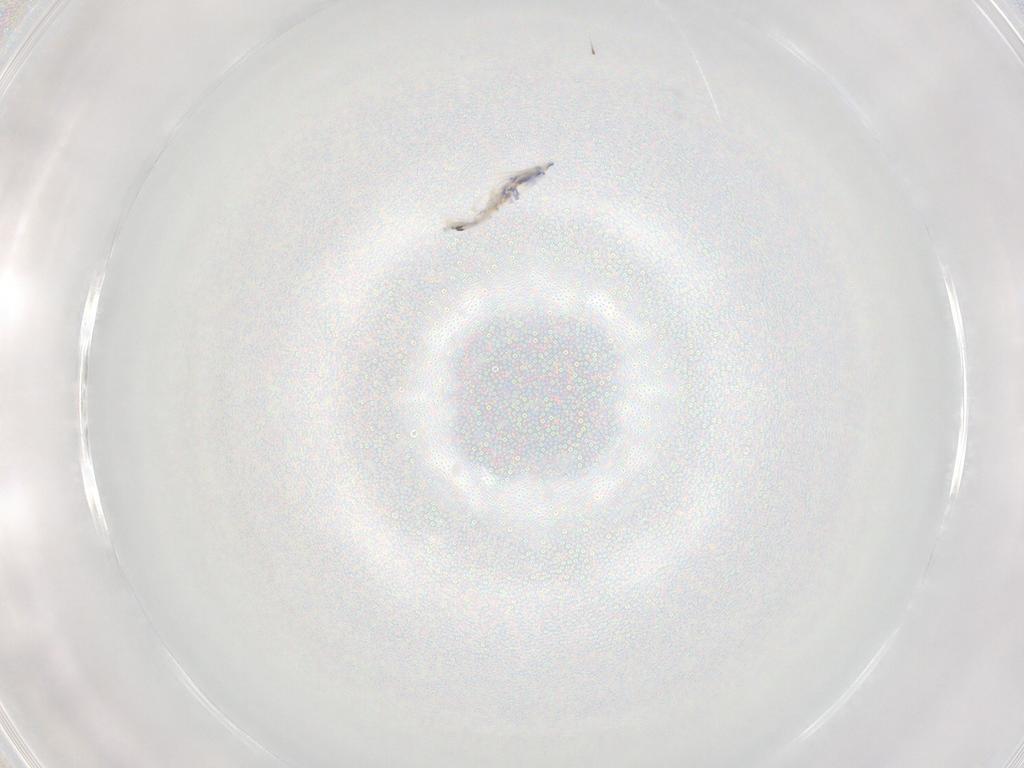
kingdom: Animalia
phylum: Arthropoda
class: Collembola
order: Entomobryomorpha
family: Entomobryidae
